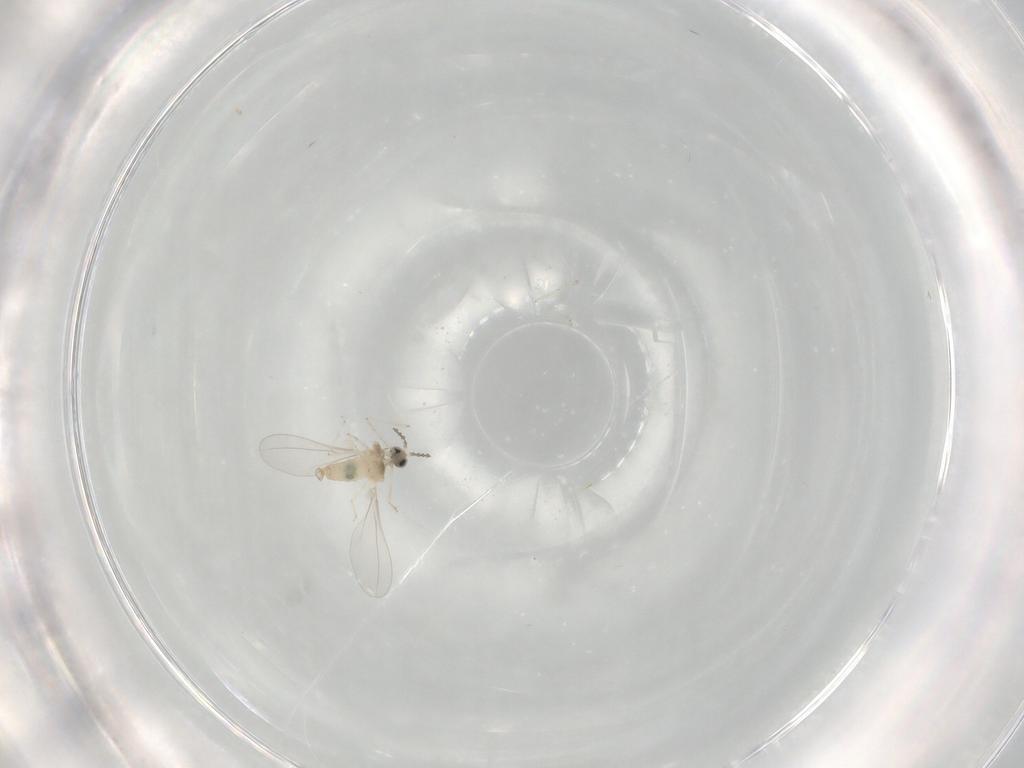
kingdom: Animalia
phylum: Arthropoda
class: Insecta
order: Diptera
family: Cecidomyiidae
